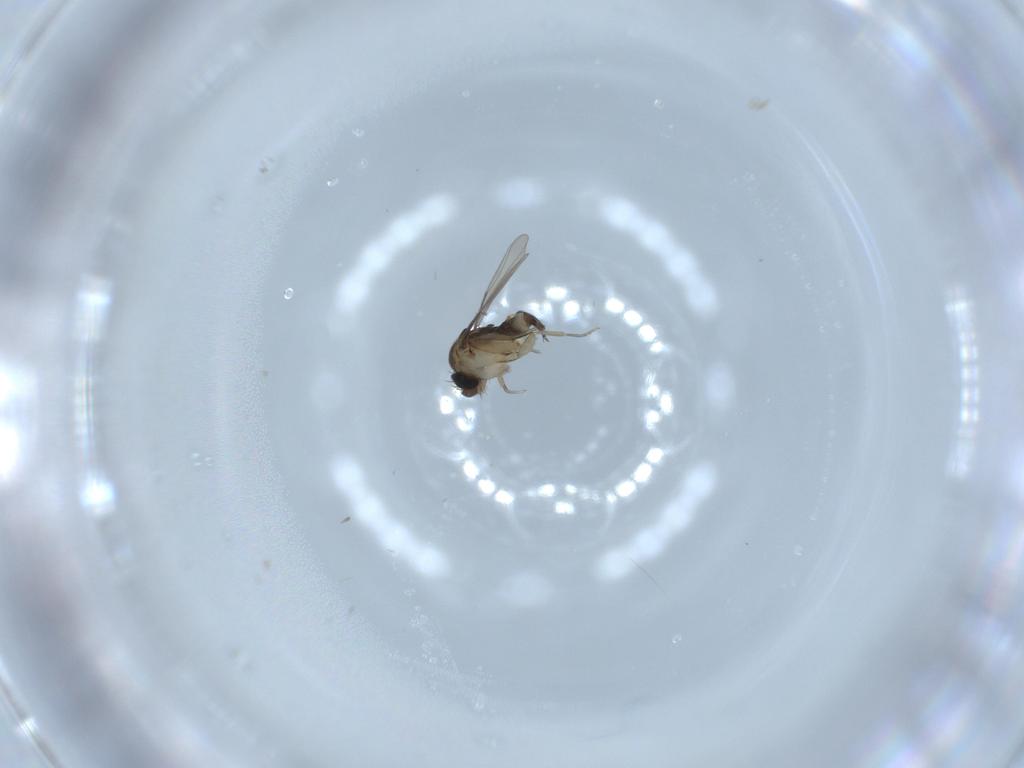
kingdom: Animalia
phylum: Arthropoda
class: Insecta
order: Diptera
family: Phoridae
